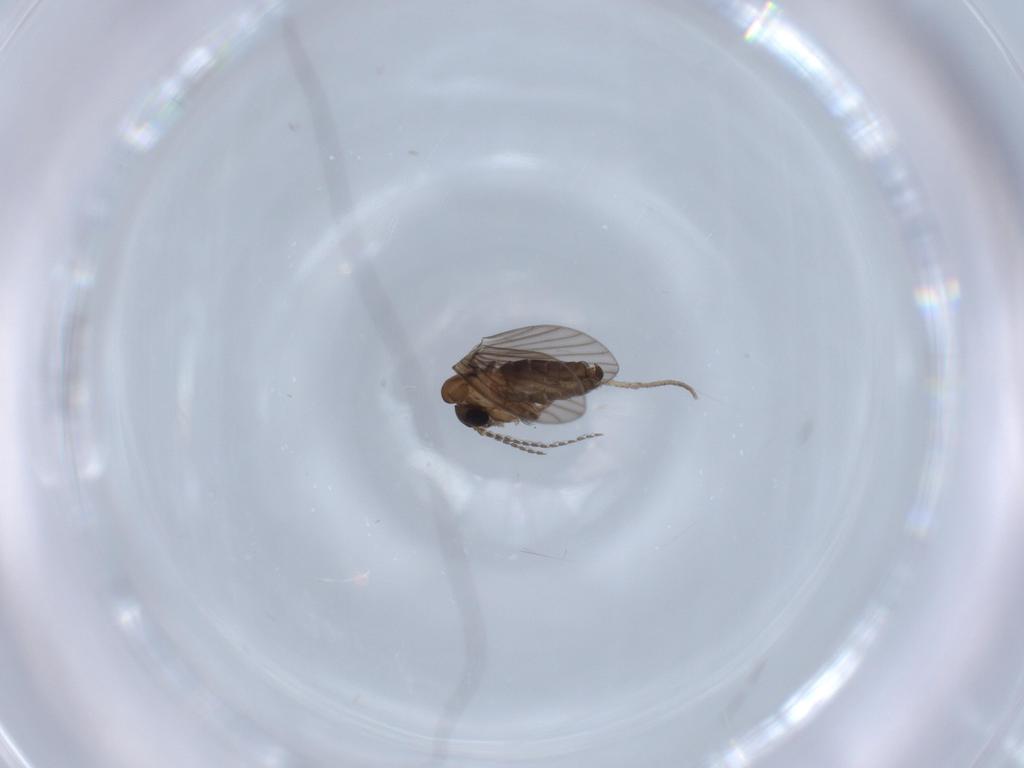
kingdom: Animalia
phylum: Arthropoda
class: Insecta
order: Diptera
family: Psychodidae
